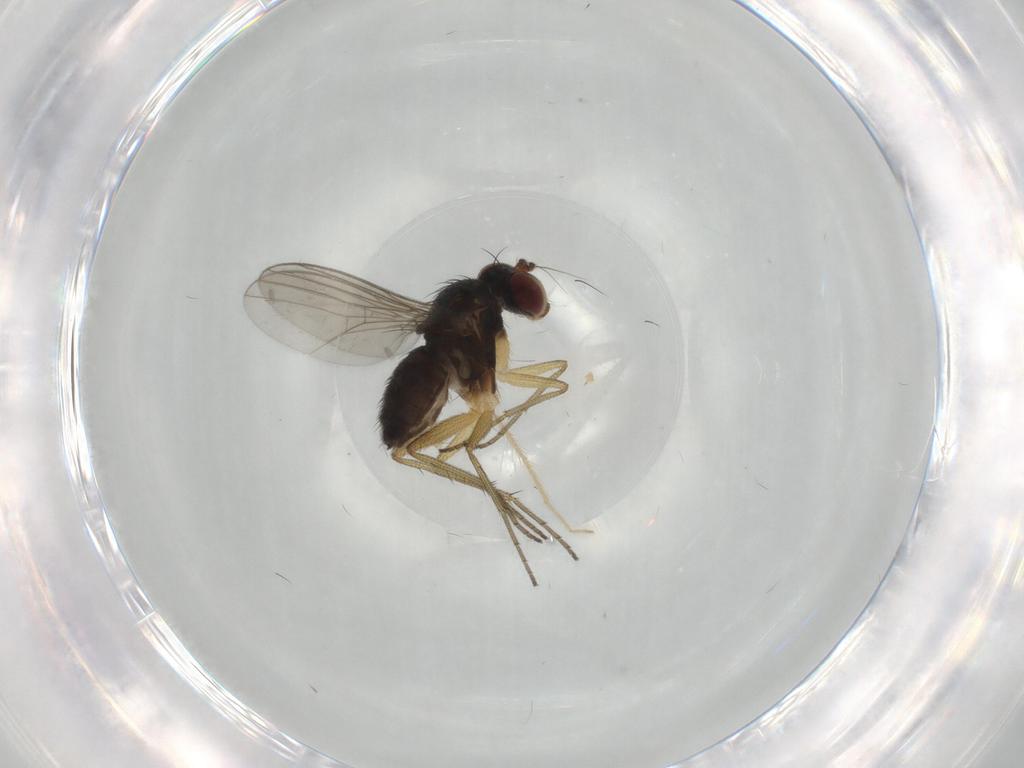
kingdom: Animalia
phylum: Arthropoda
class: Insecta
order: Diptera
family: Dolichopodidae
